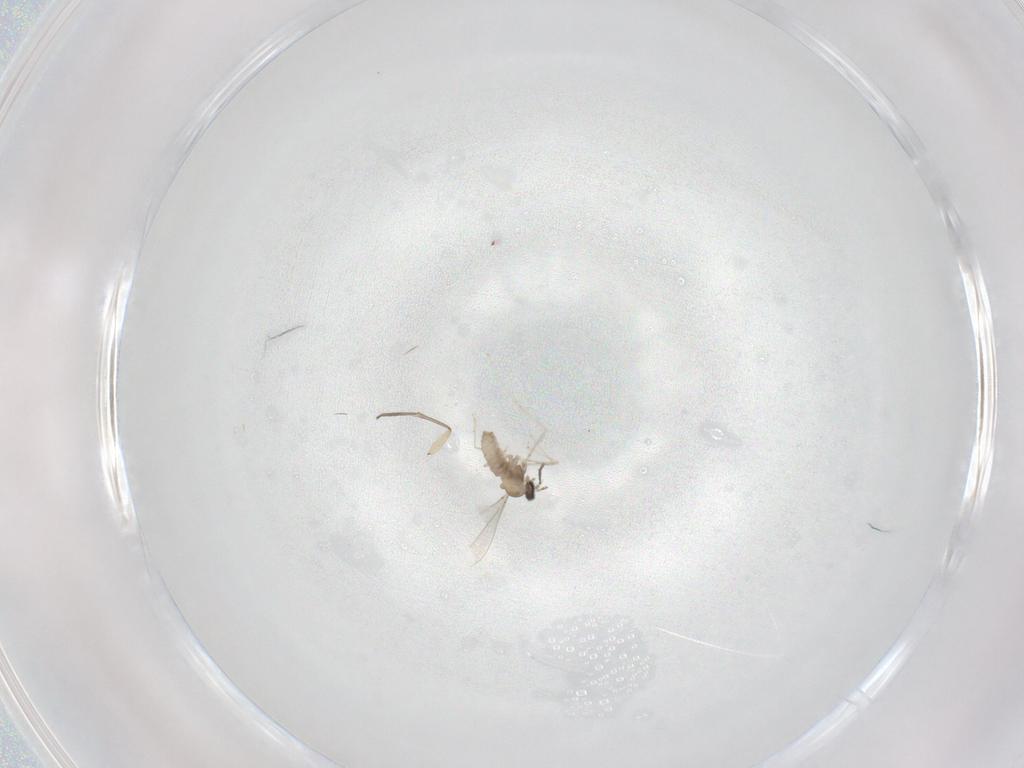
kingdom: Animalia
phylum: Arthropoda
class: Insecta
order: Diptera
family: Cecidomyiidae
